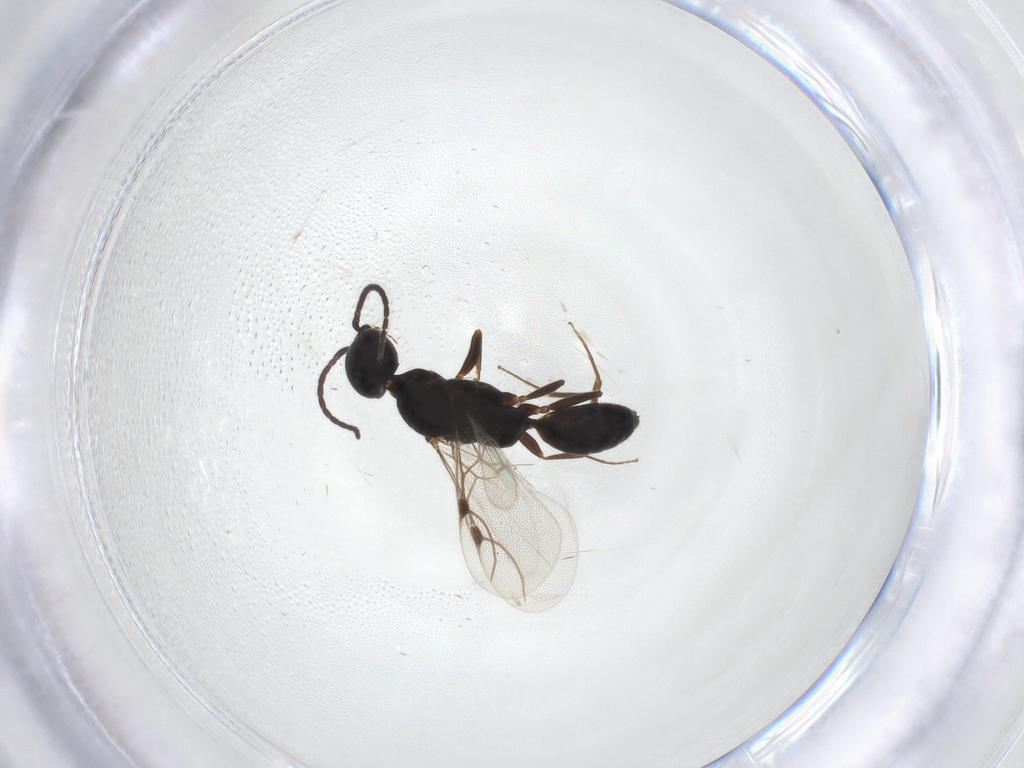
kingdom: Animalia
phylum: Arthropoda
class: Insecta
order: Hymenoptera
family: Bethylidae
